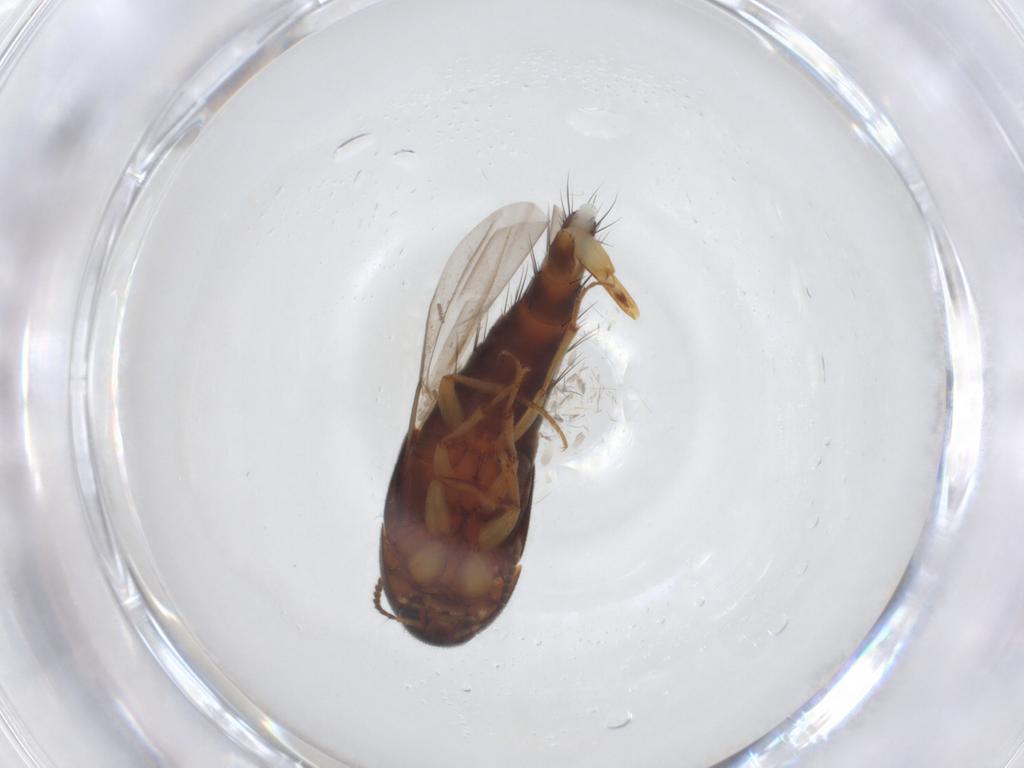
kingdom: Animalia
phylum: Arthropoda
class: Insecta
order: Coleoptera
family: Staphylinidae
